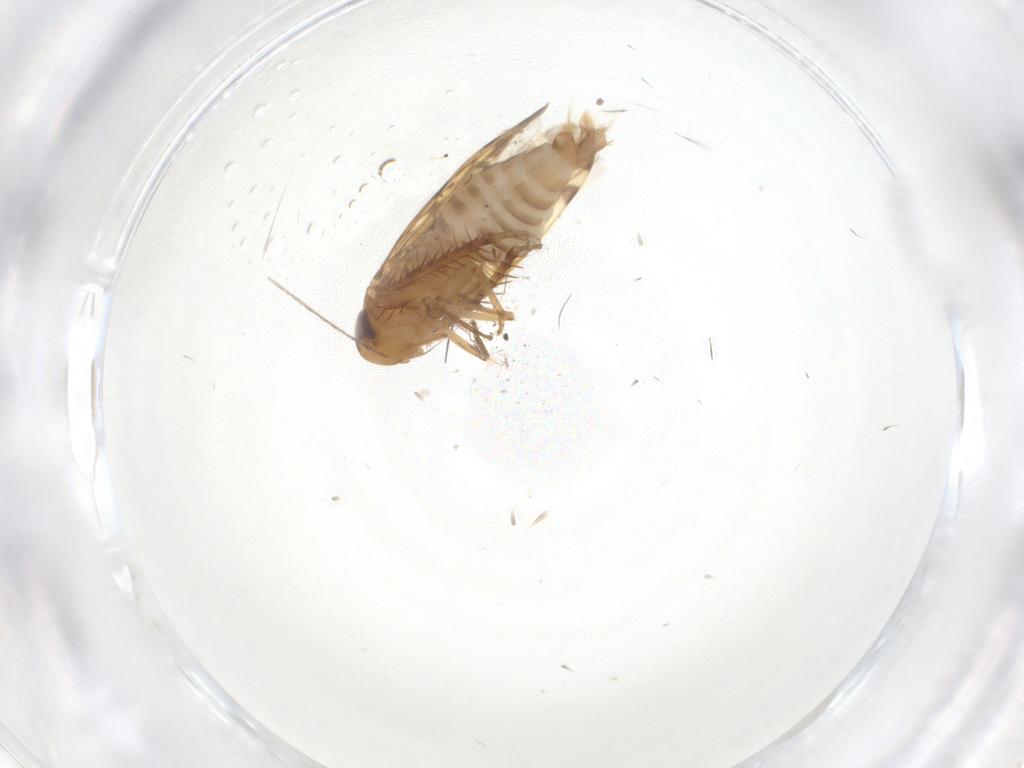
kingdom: Animalia
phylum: Arthropoda
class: Insecta
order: Hemiptera
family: Cicadellidae
